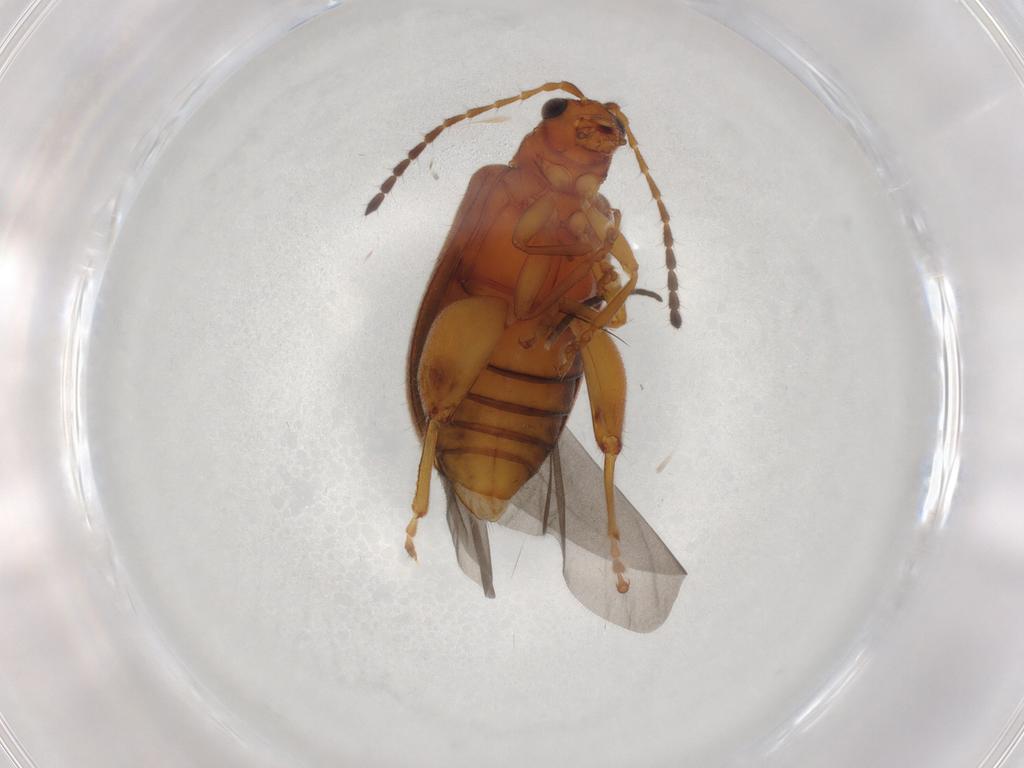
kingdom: Animalia
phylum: Arthropoda
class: Insecta
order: Coleoptera
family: Chrysomelidae
